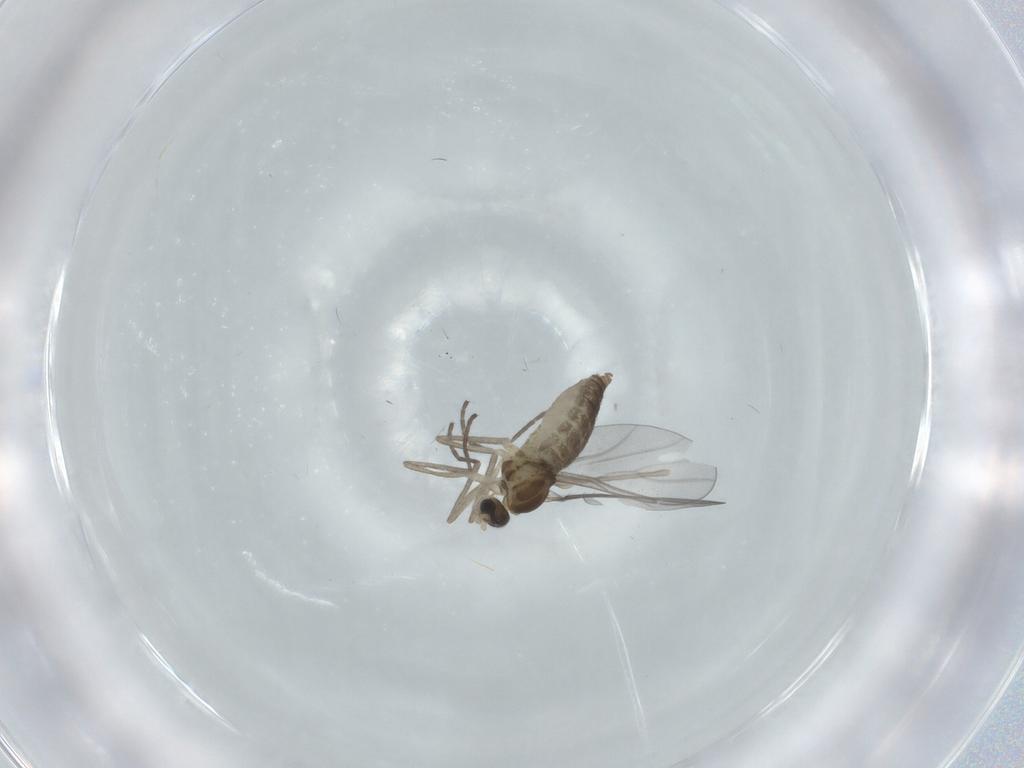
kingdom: Animalia
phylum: Arthropoda
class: Insecta
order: Diptera
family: Cecidomyiidae
